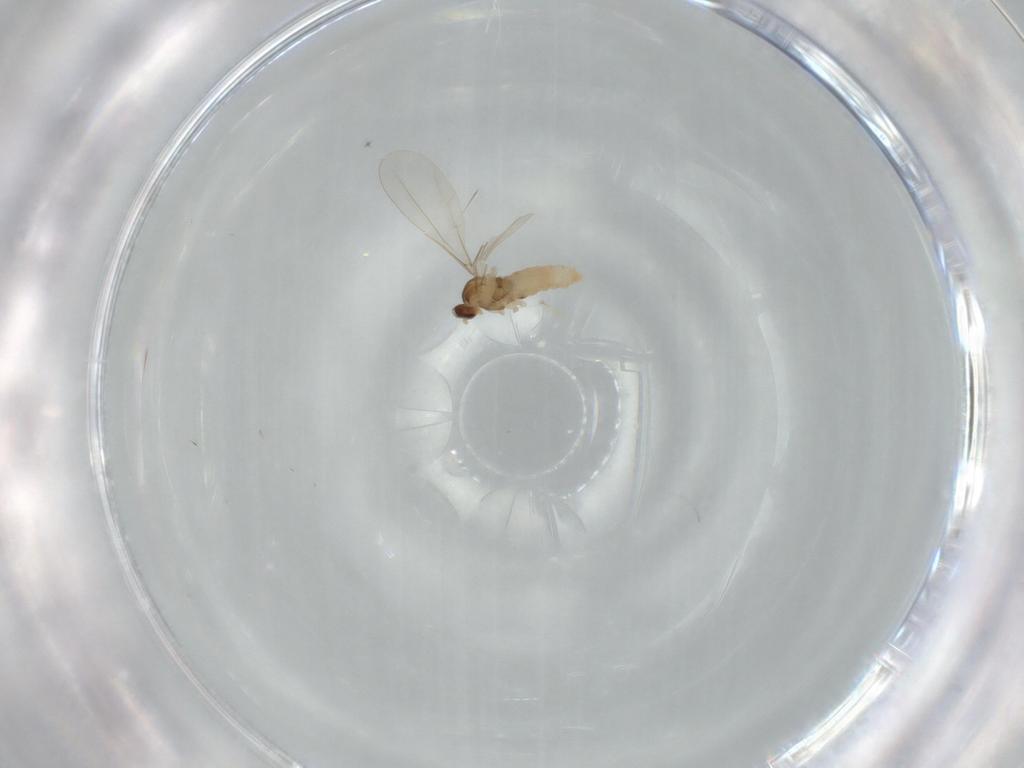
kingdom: Animalia
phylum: Arthropoda
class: Insecta
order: Diptera
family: Cecidomyiidae
